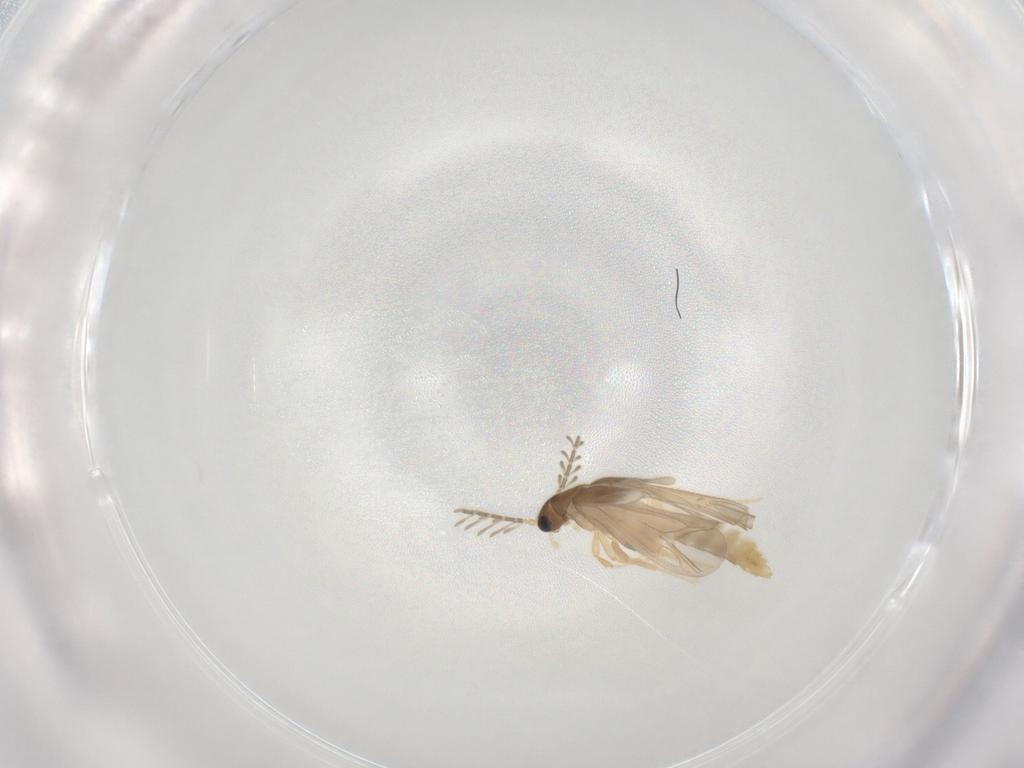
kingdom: Animalia
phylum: Arthropoda
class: Insecta
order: Coleoptera
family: Phengodidae
